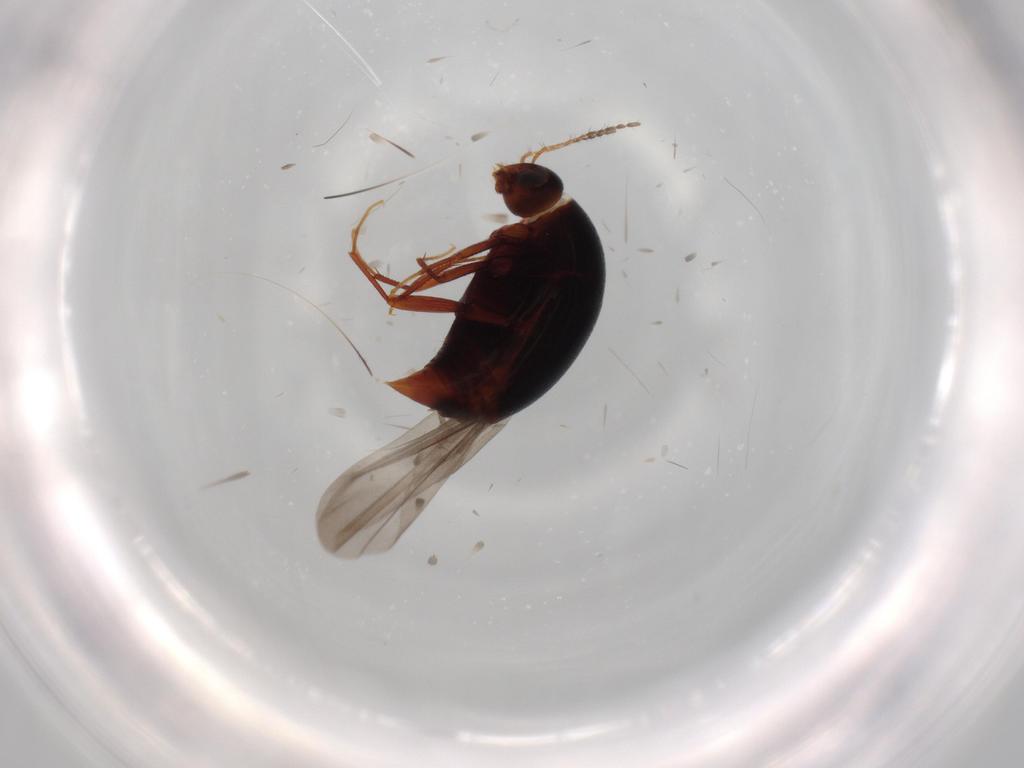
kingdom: Animalia
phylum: Arthropoda
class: Insecta
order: Coleoptera
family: Staphylinidae
